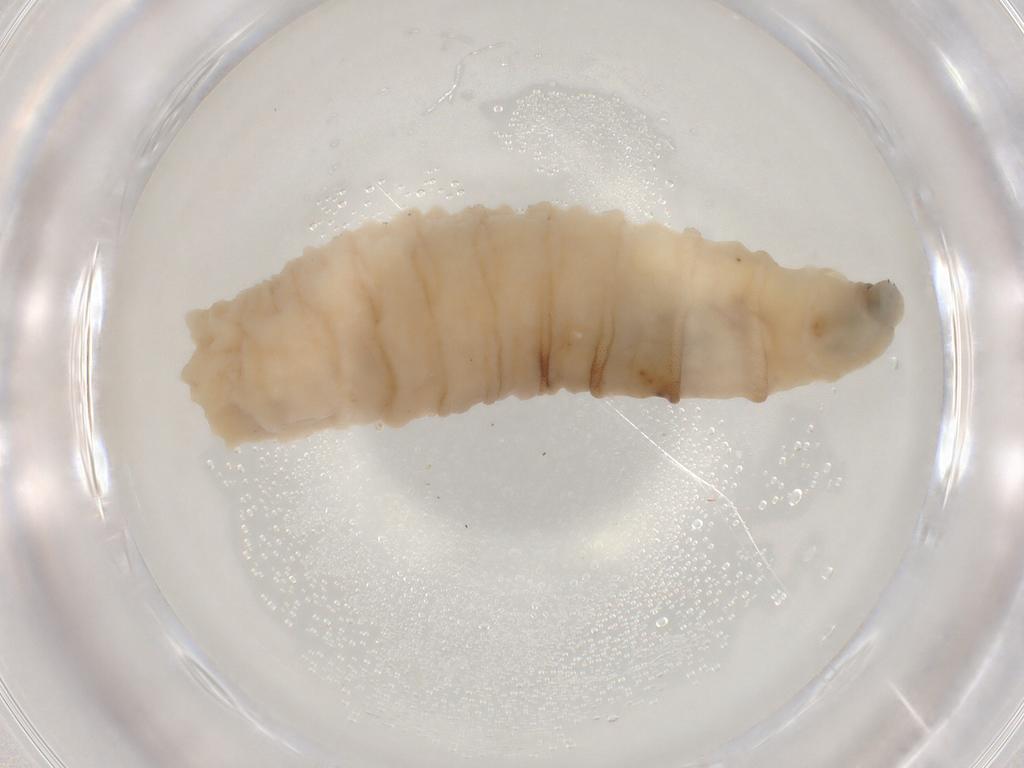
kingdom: Animalia
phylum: Arthropoda
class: Insecta
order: Diptera
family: Sarcophagidae
